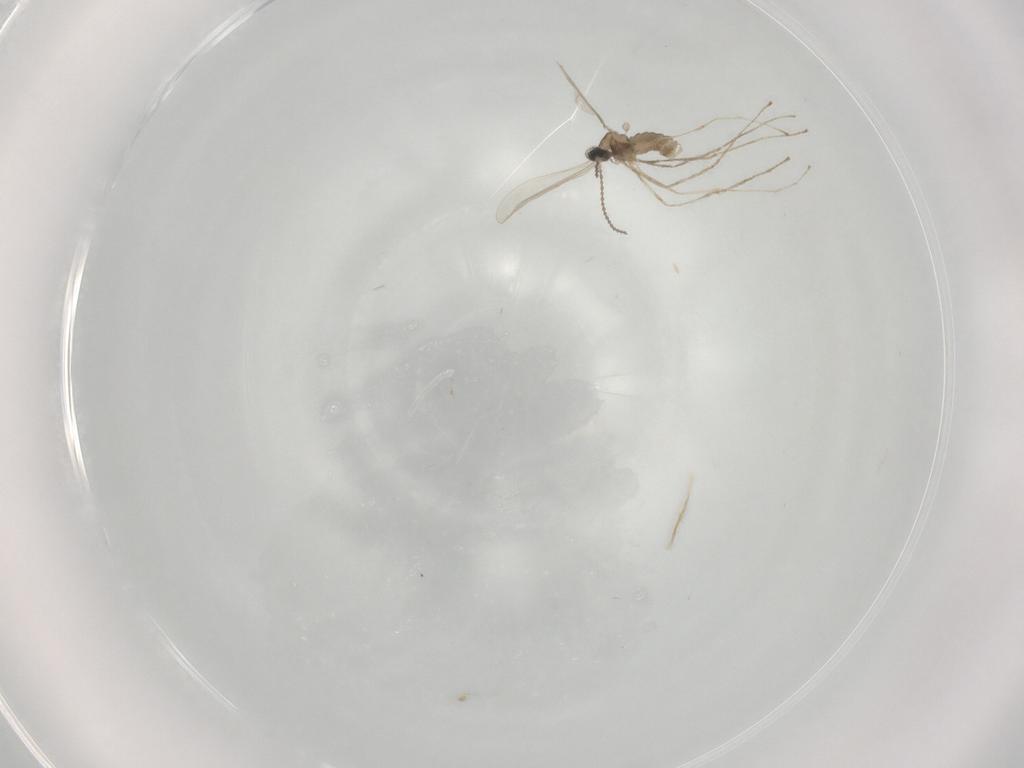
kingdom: Animalia
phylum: Arthropoda
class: Insecta
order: Diptera
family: Cecidomyiidae
